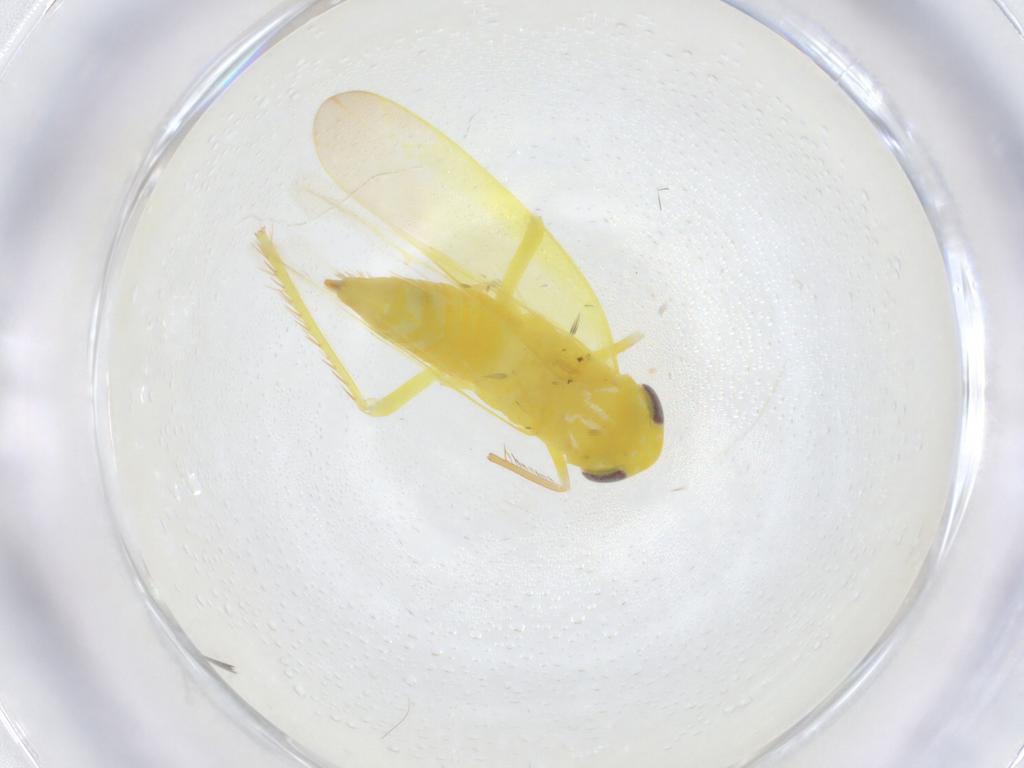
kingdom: Animalia
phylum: Arthropoda
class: Insecta
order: Hemiptera
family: Cicadellidae
